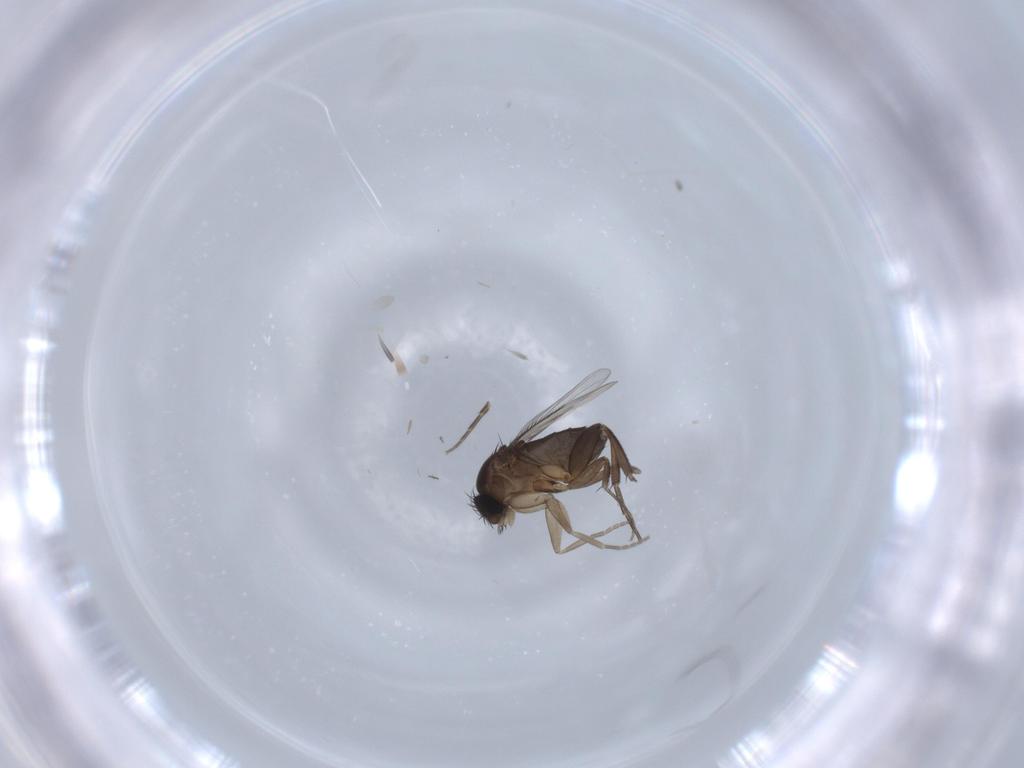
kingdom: Animalia
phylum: Arthropoda
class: Insecta
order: Diptera
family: Phoridae
